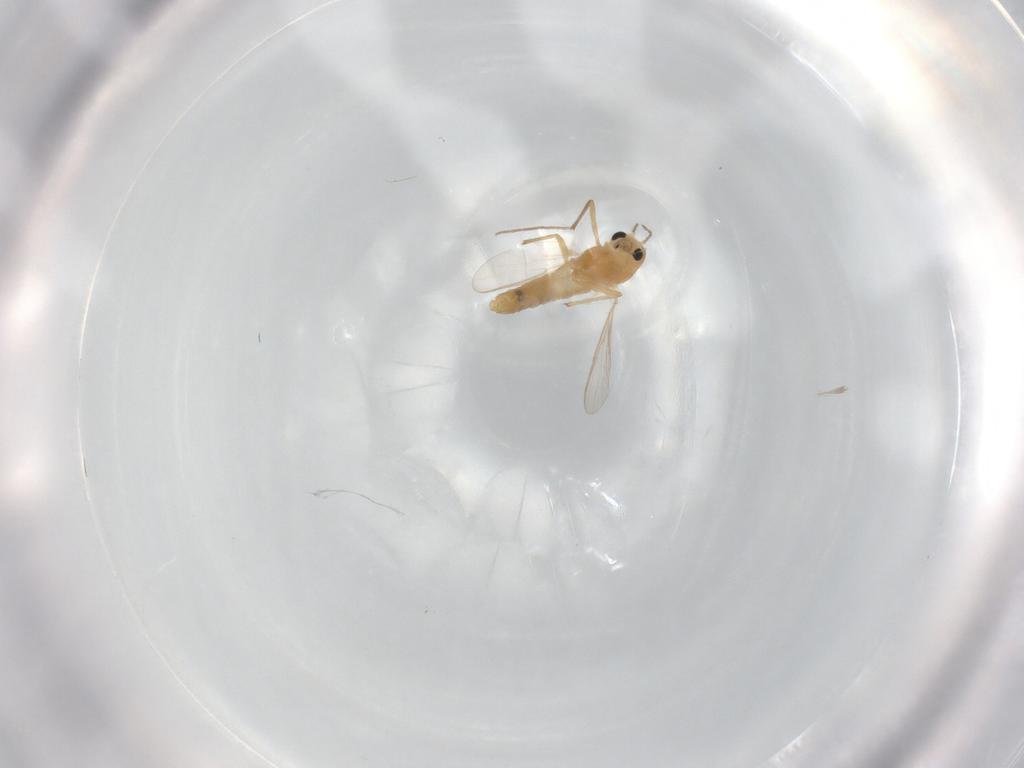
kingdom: Animalia
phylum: Arthropoda
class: Insecta
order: Diptera
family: Chironomidae
